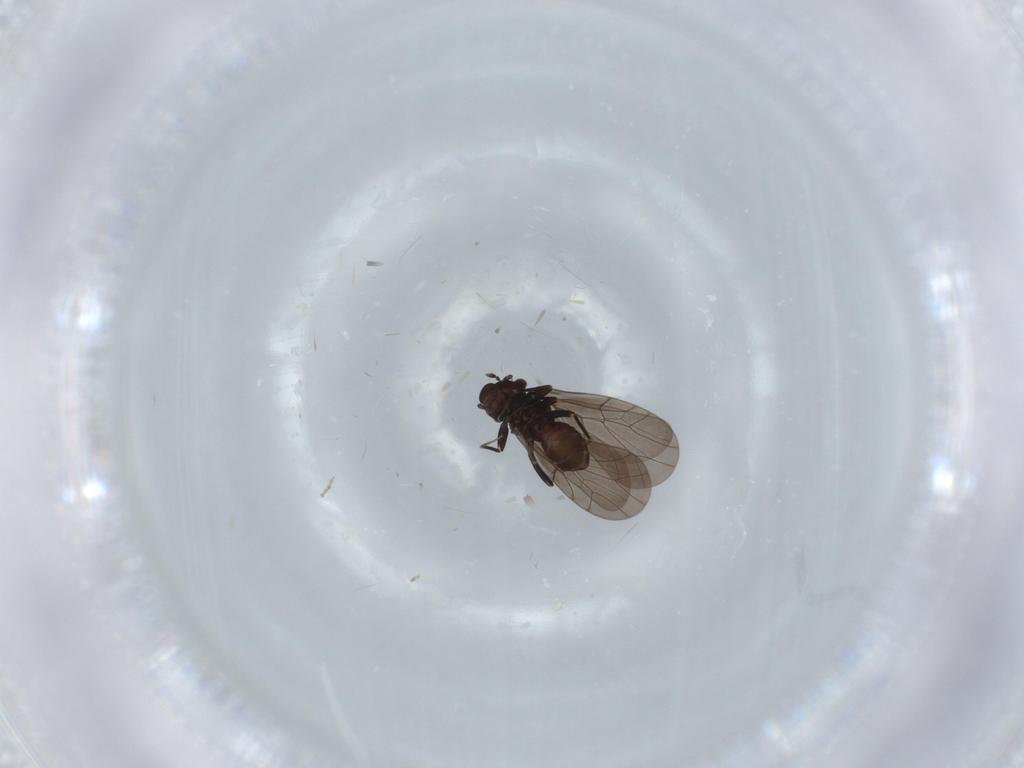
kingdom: Animalia
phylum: Arthropoda
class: Insecta
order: Psocodea
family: Lepidopsocidae
